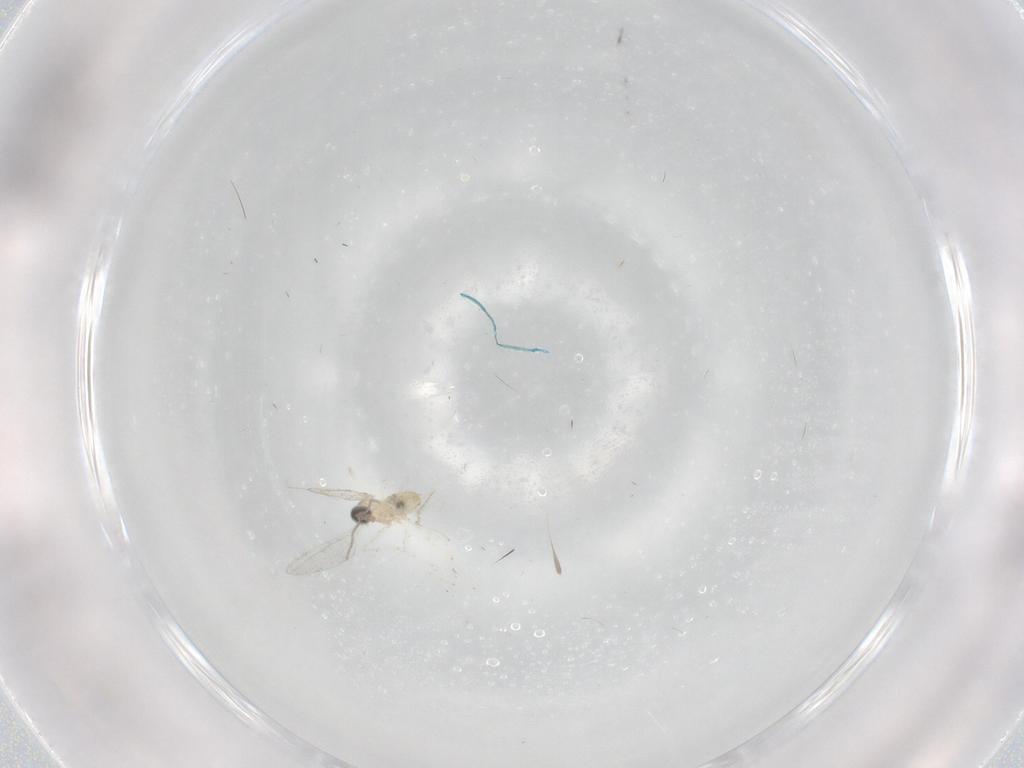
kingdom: Animalia
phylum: Arthropoda
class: Insecta
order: Diptera
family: Cecidomyiidae
